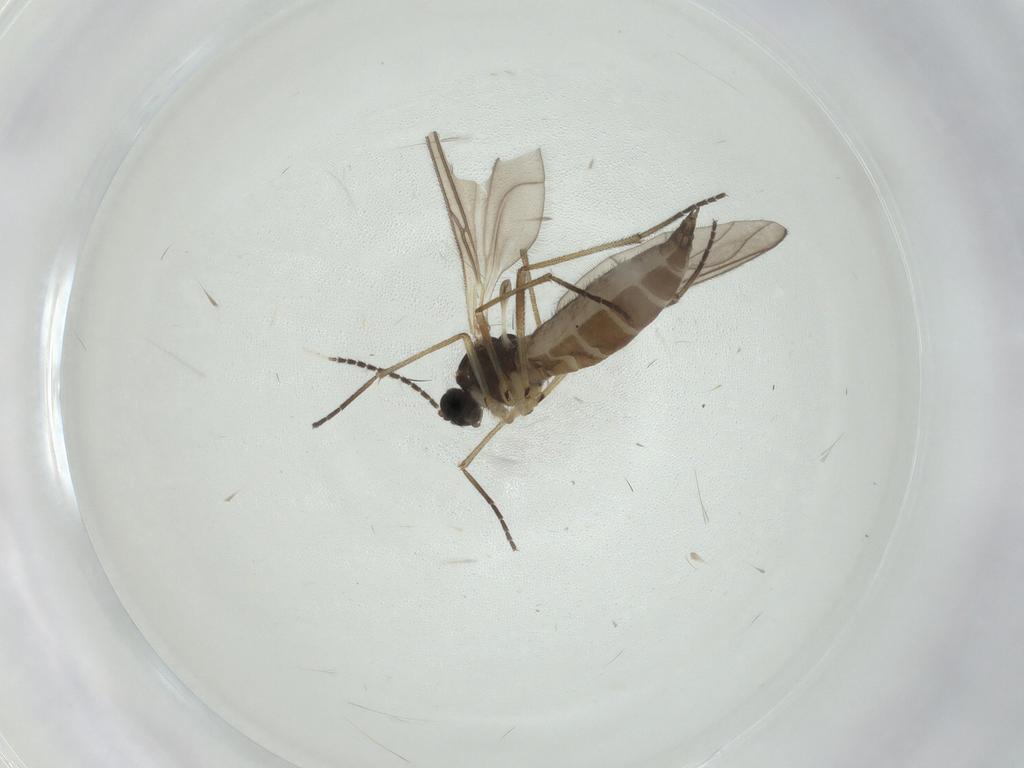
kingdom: Animalia
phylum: Arthropoda
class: Insecta
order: Diptera
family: Sciaridae
